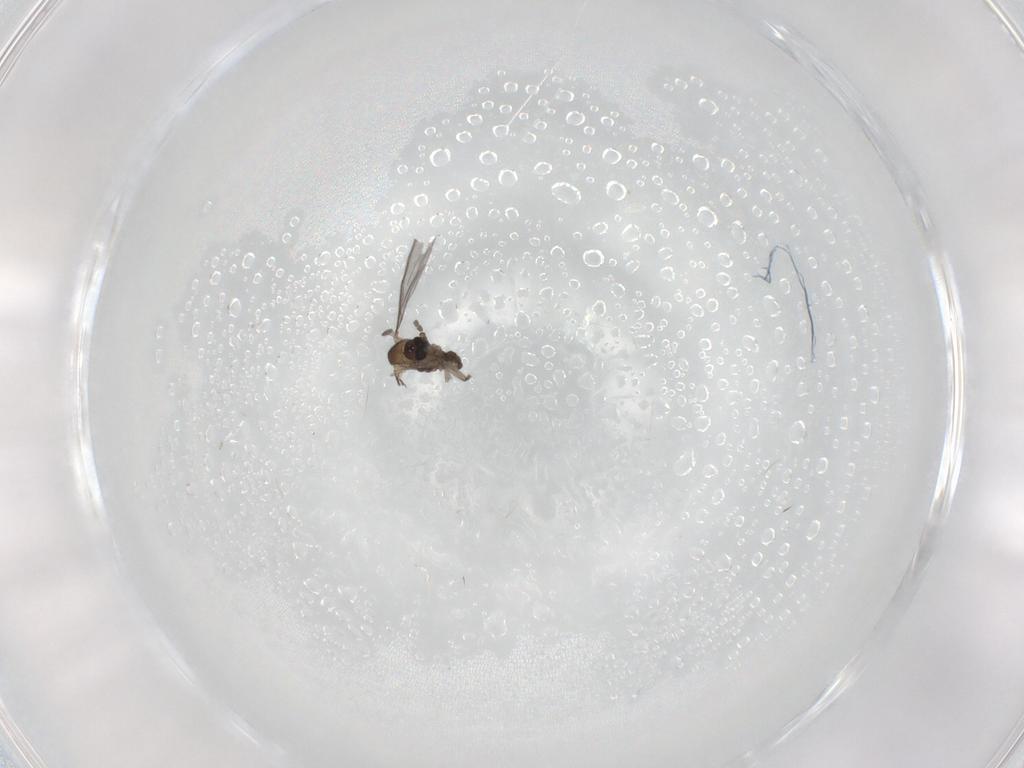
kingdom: Animalia
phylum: Arthropoda
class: Insecta
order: Diptera
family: Sciaridae
